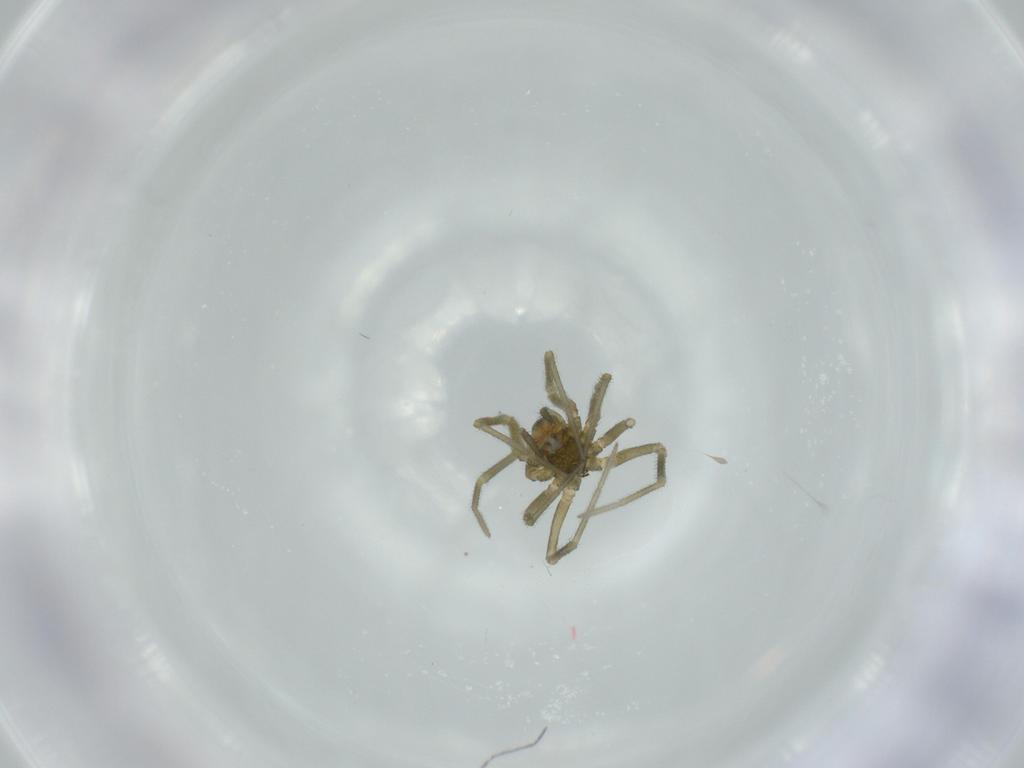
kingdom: Animalia
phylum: Arthropoda
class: Arachnida
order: Araneae
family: Linyphiidae
